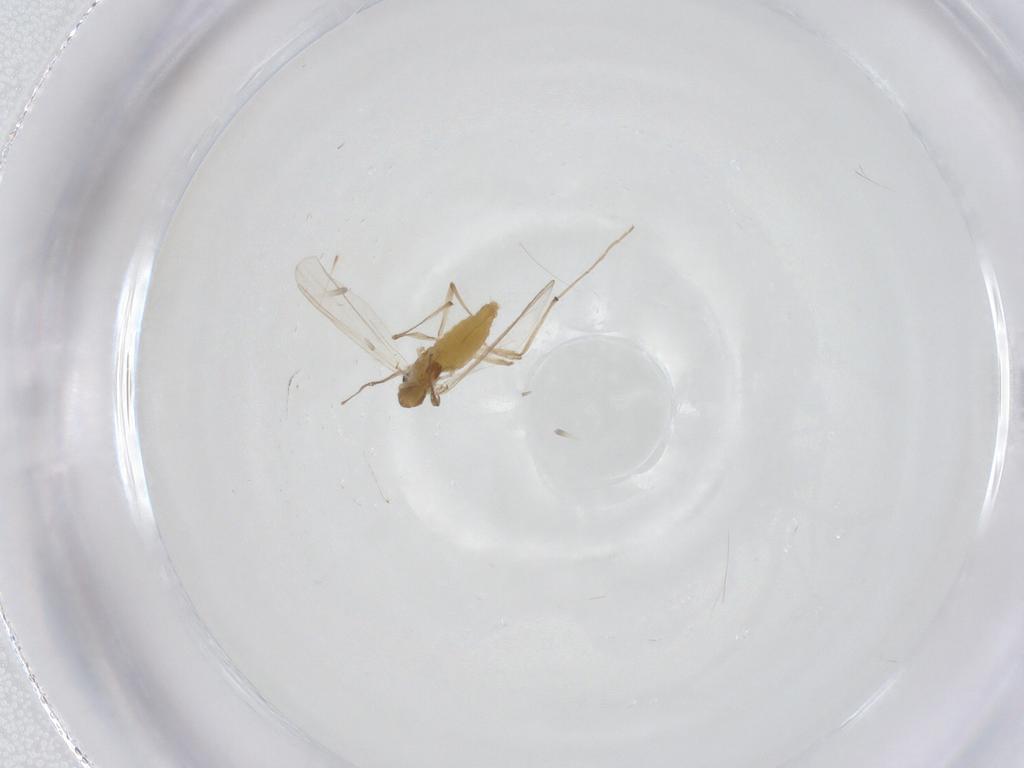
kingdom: Animalia
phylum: Arthropoda
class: Insecta
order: Diptera
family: Chironomidae
